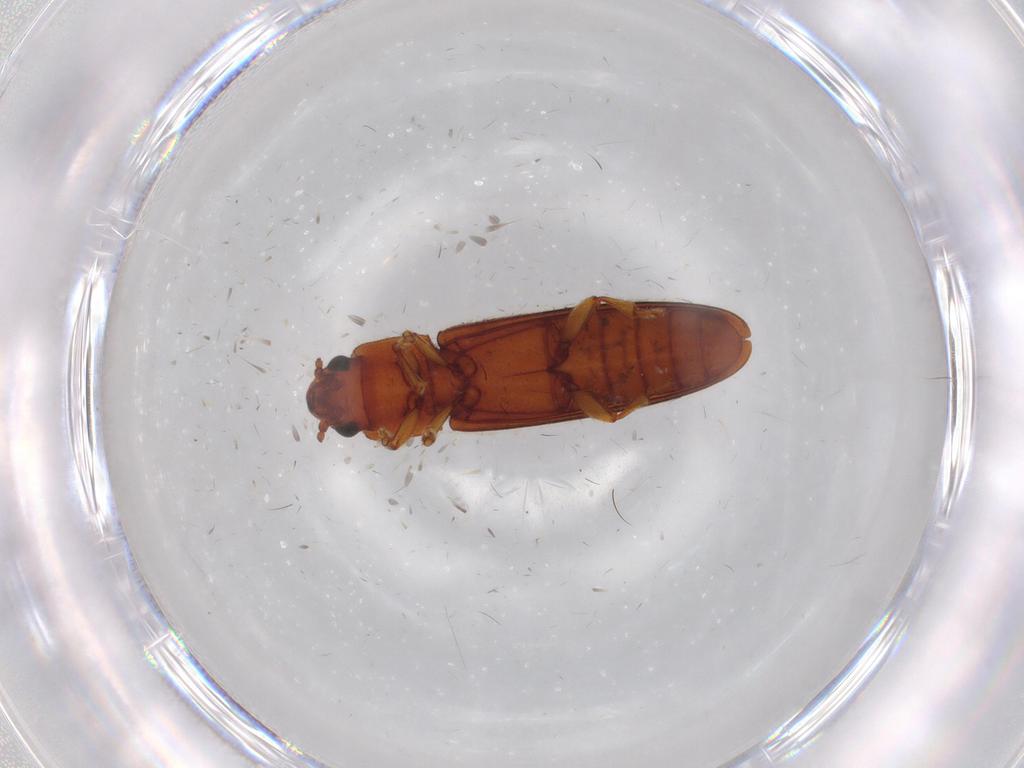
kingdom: Animalia
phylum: Arthropoda
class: Insecta
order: Coleoptera
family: Erotylidae
